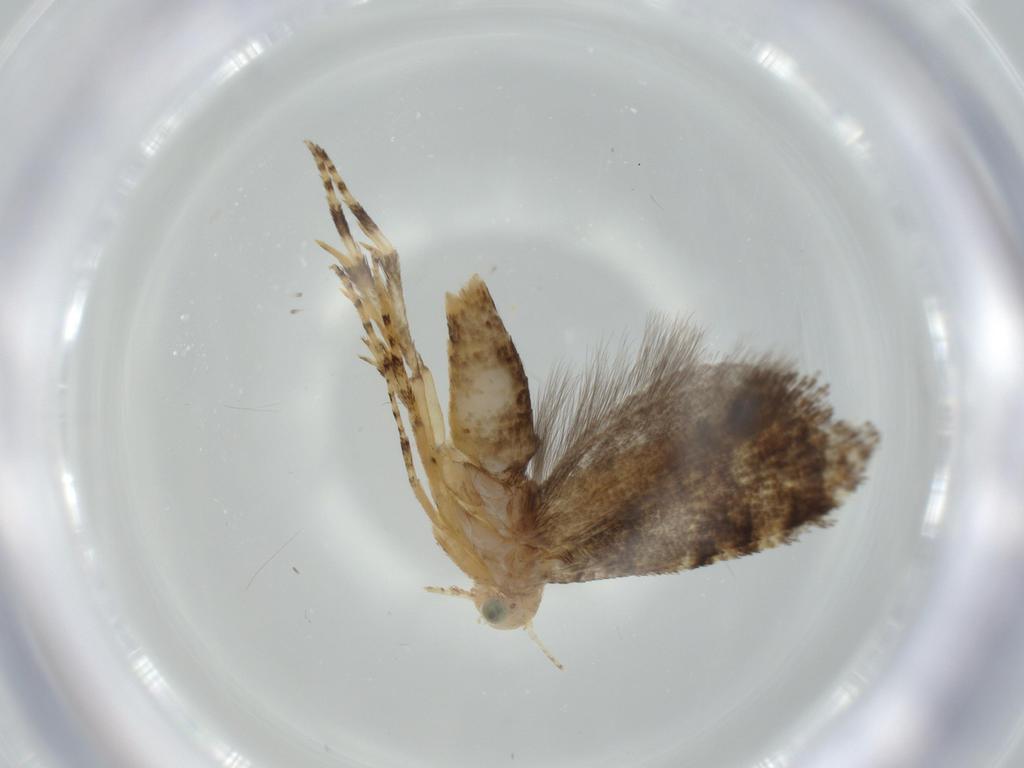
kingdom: Animalia
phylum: Arthropoda
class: Insecta
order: Lepidoptera
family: Glyphipterigidae
